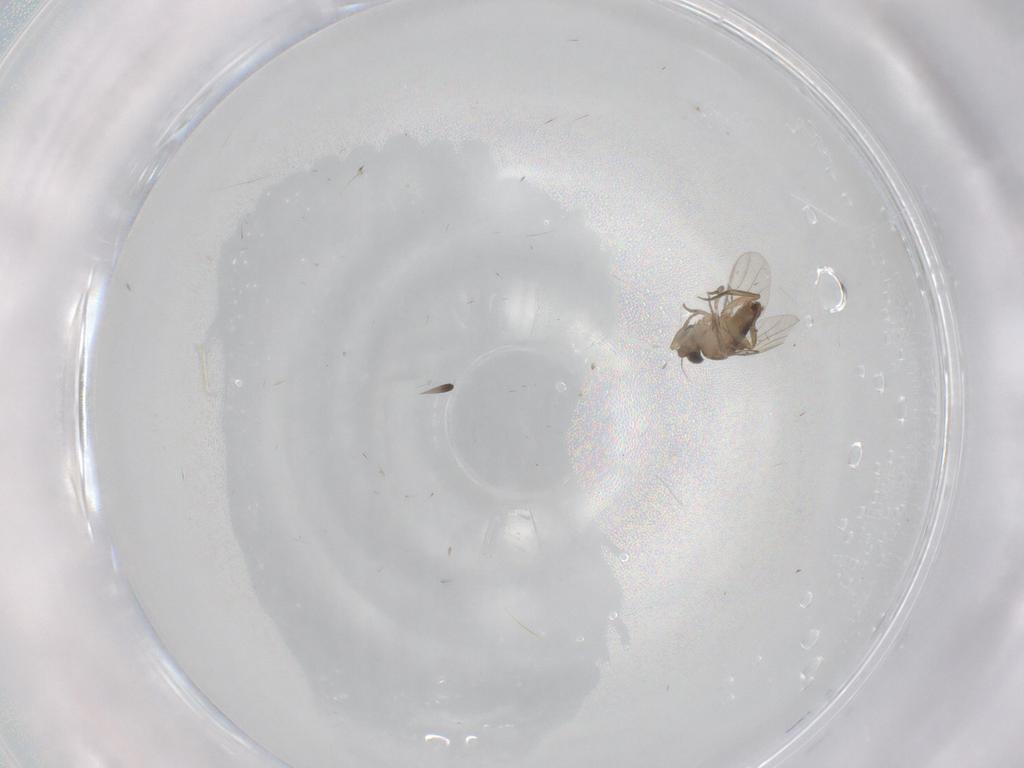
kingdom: Animalia
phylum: Arthropoda
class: Insecta
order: Diptera
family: Phoridae
